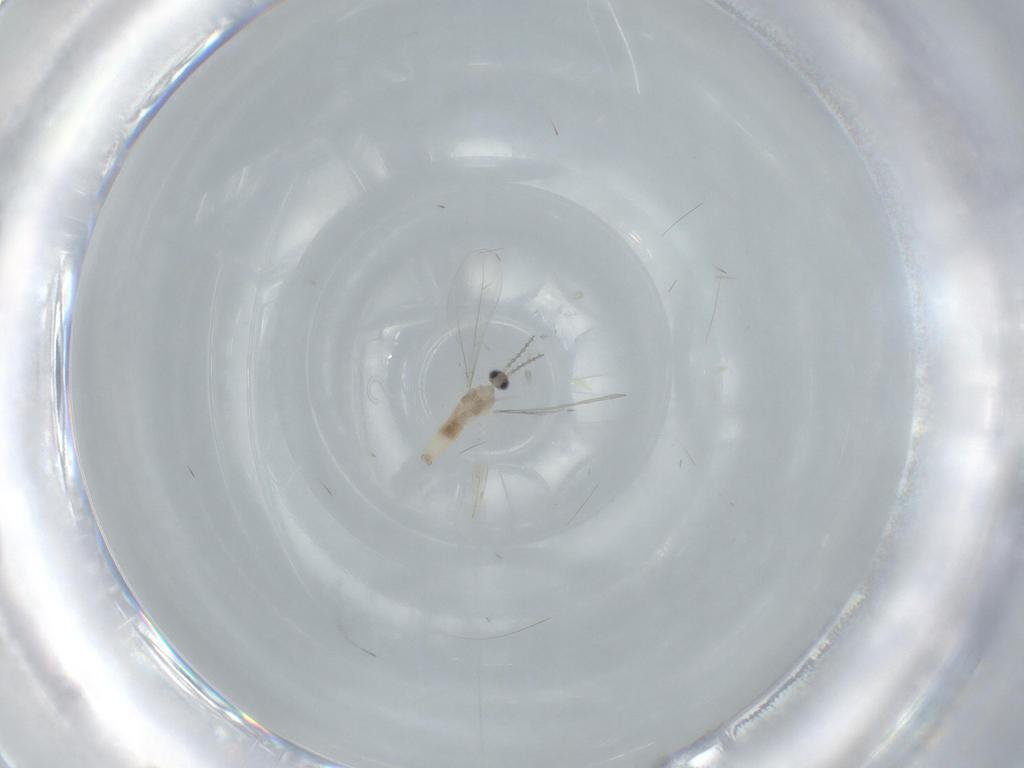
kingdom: Animalia
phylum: Arthropoda
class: Insecta
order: Diptera
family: Cecidomyiidae
